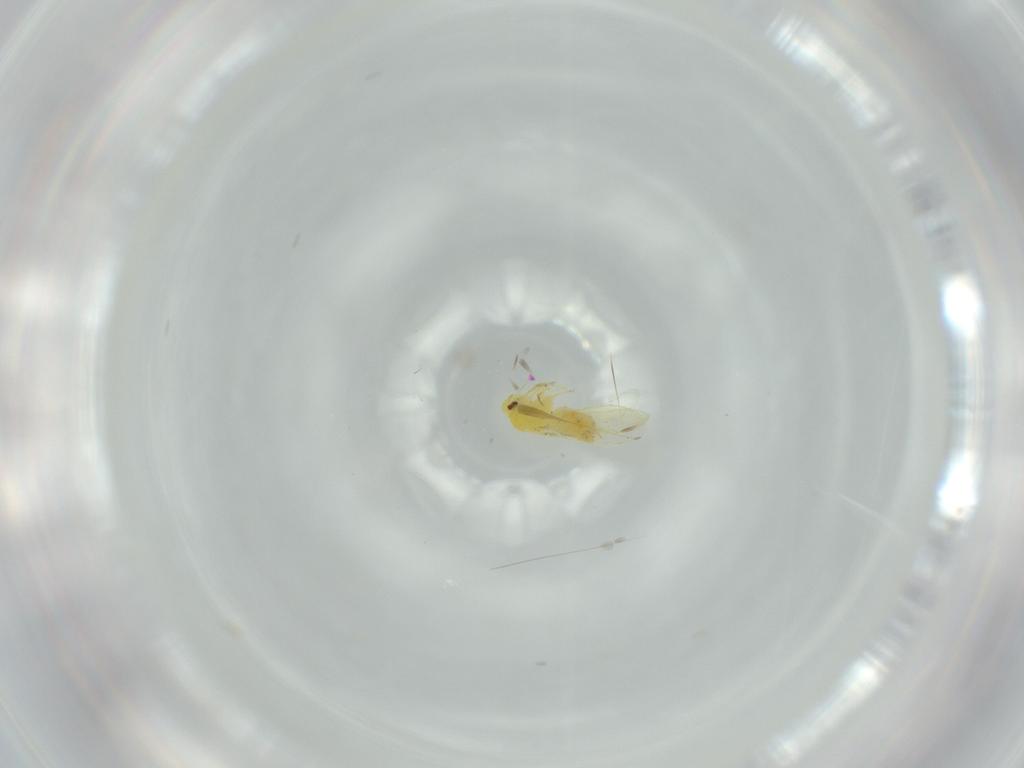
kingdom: Animalia
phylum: Arthropoda
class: Insecta
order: Hemiptera
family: Aleyrodidae
